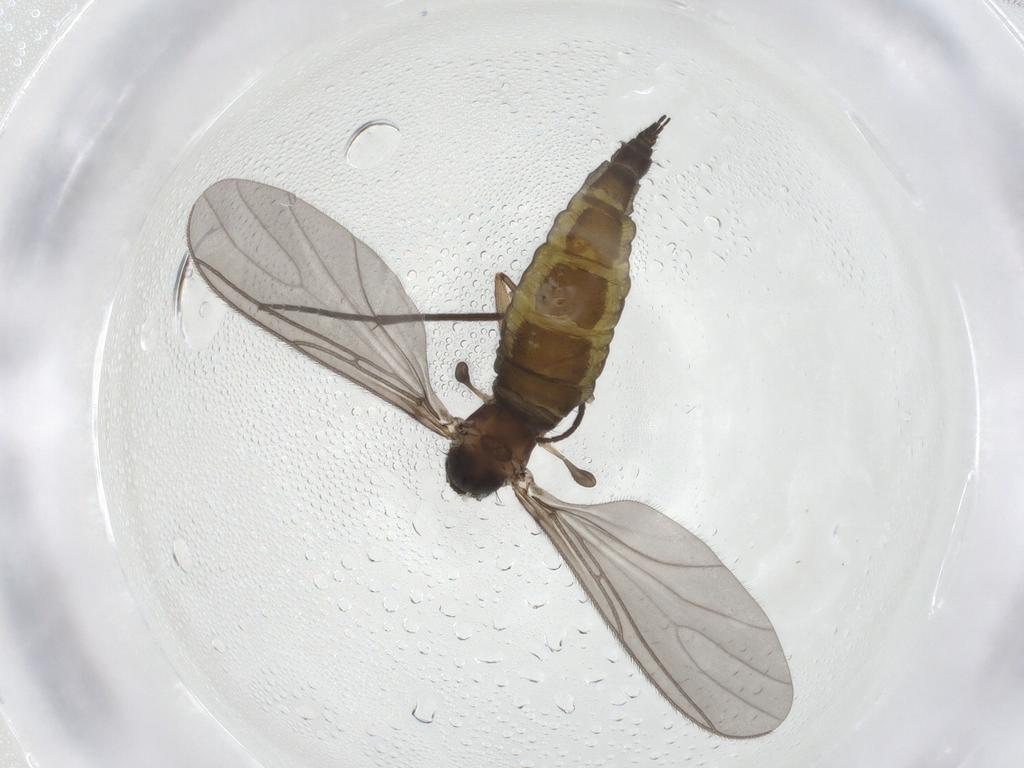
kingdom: Animalia
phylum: Arthropoda
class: Insecta
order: Diptera
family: Sciaridae
